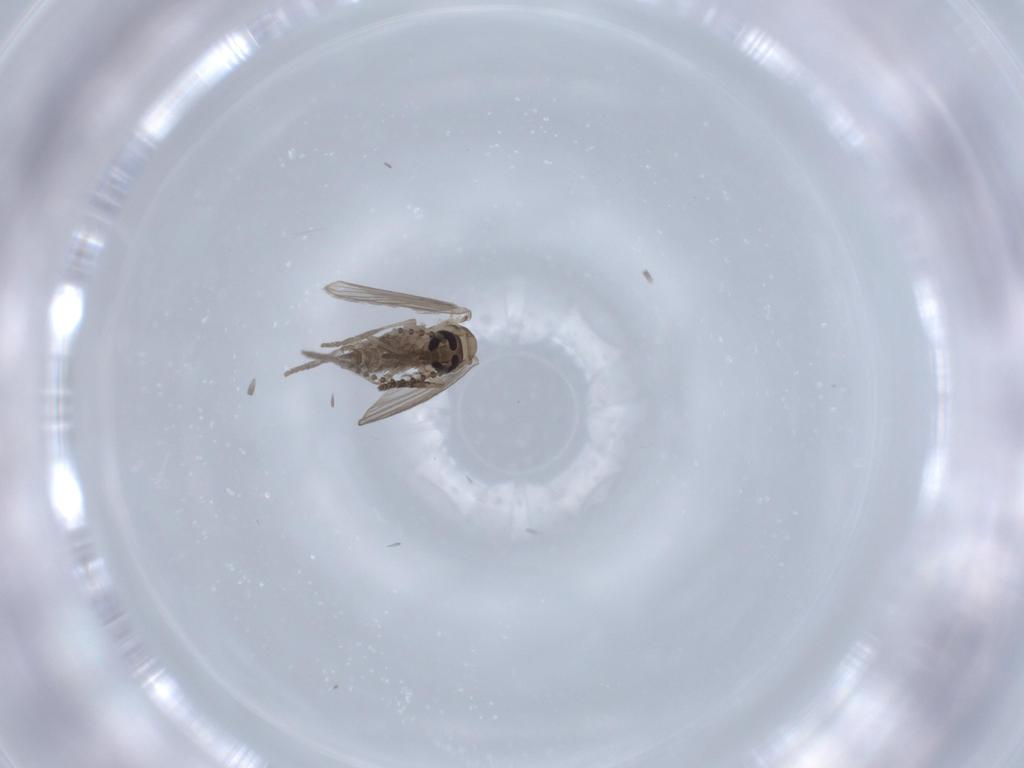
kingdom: Animalia
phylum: Arthropoda
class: Insecta
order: Diptera
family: Psychodidae
